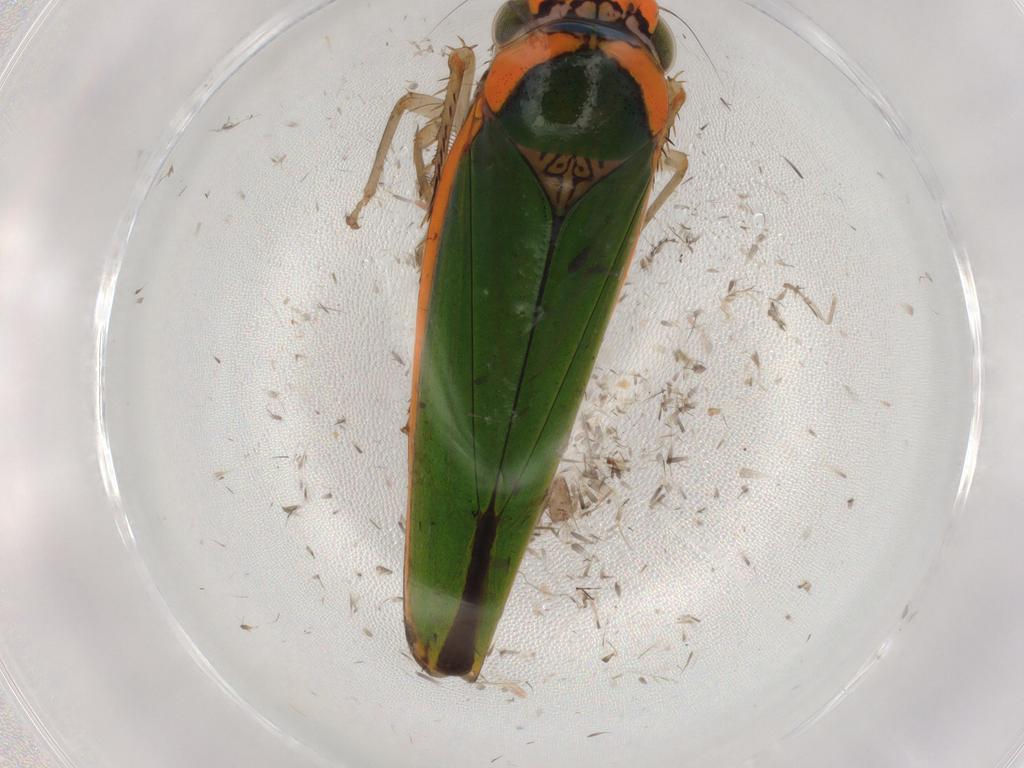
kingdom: Animalia
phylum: Arthropoda
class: Insecta
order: Hemiptera
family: Cicadellidae
